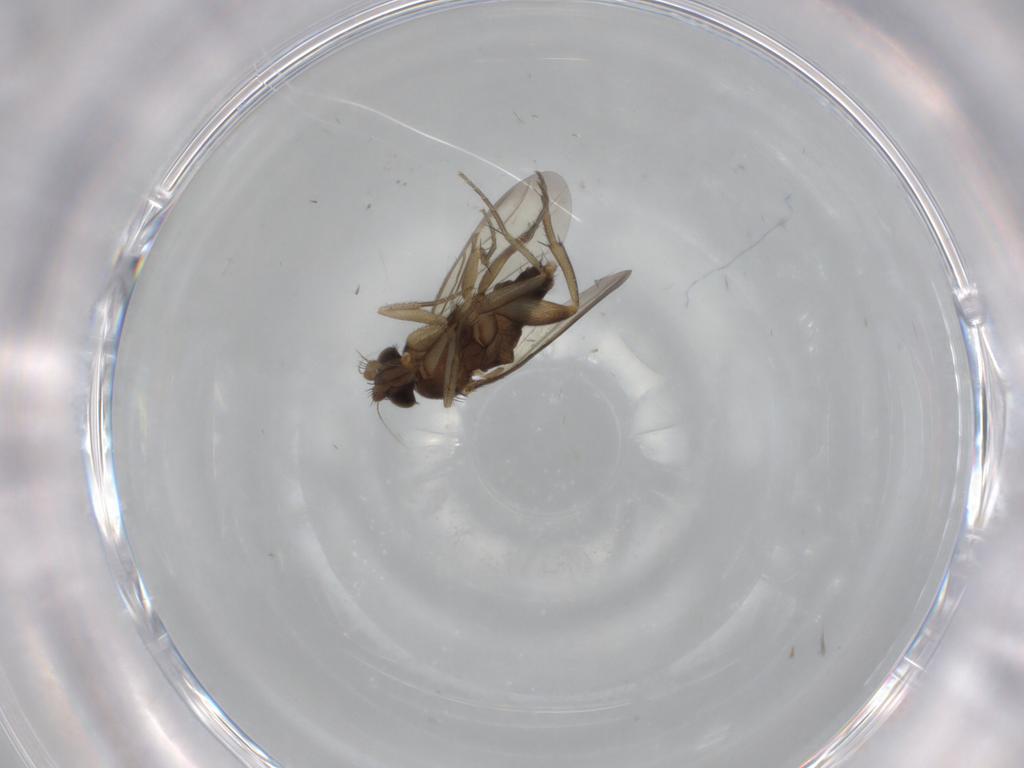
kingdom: Animalia
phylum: Arthropoda
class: Insecta
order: Diptera
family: Phoridae
